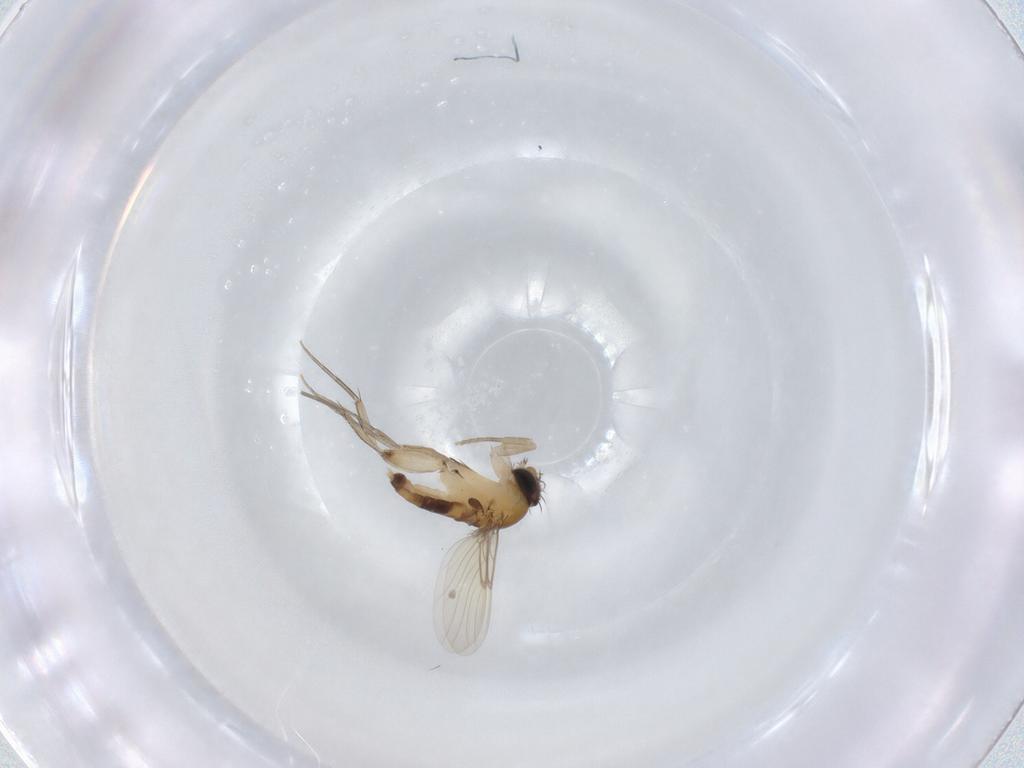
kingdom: Animalia
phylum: Arthropoda
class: Insecta
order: Diptera
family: Phoridae
